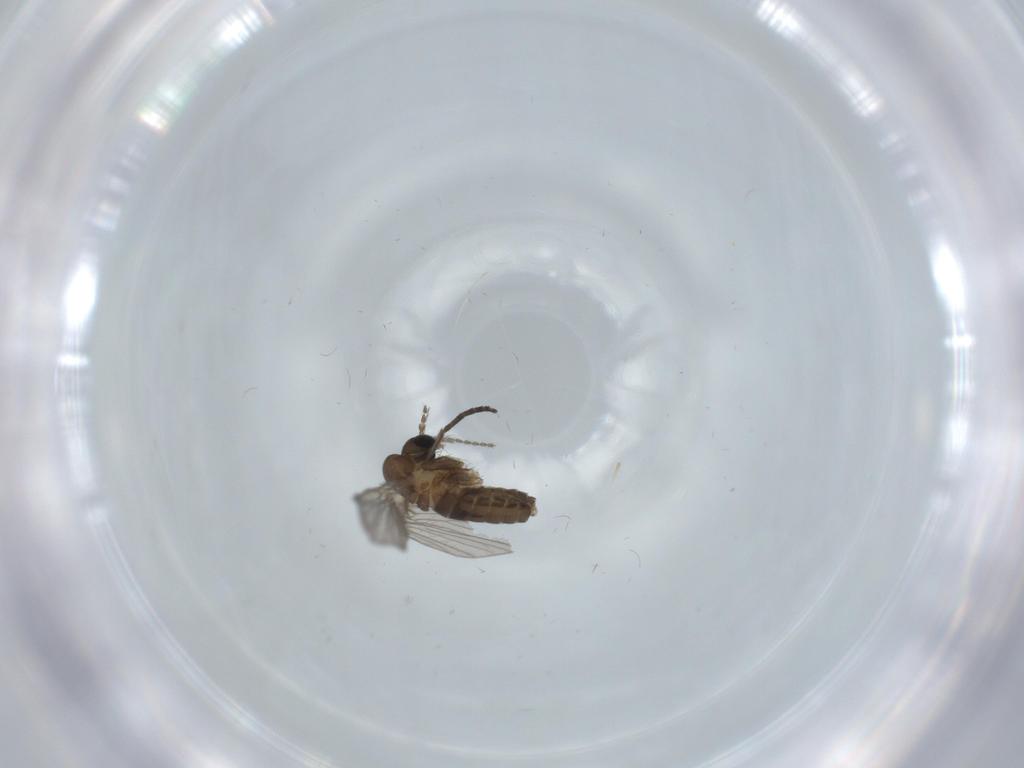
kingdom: Animalia
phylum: Arthropoda
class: Insecta
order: Diptera
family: Psychodidae
